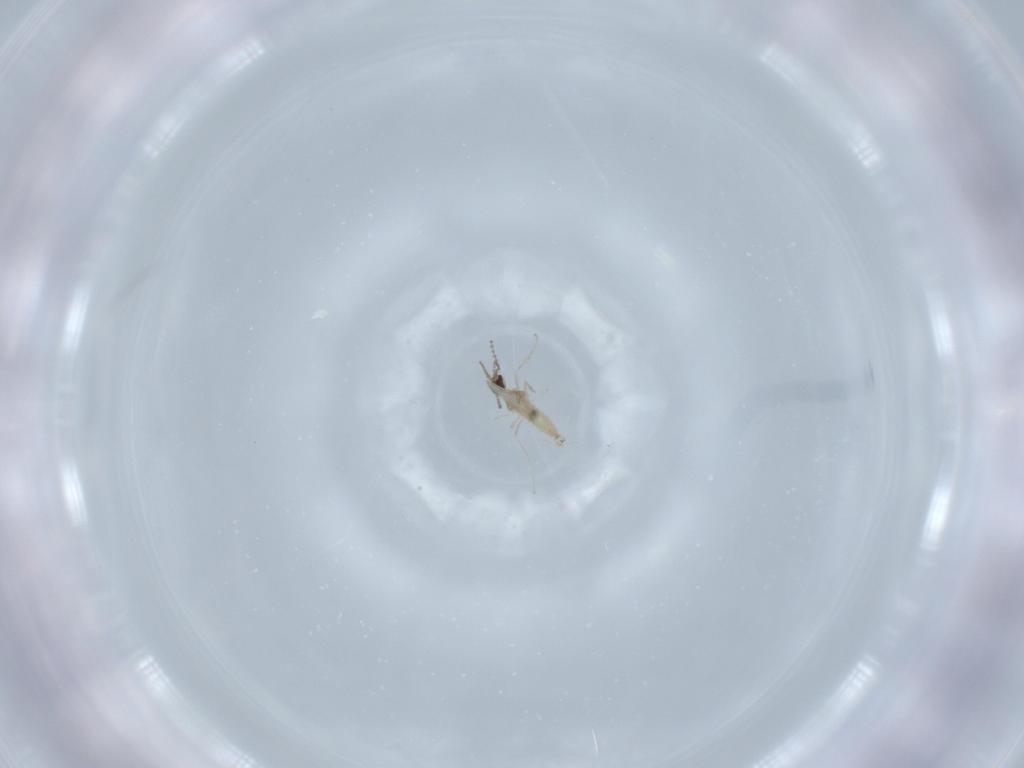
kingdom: Animalia
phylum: Arthropoda
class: Insecta
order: Diptera
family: Cecidomyiidae
